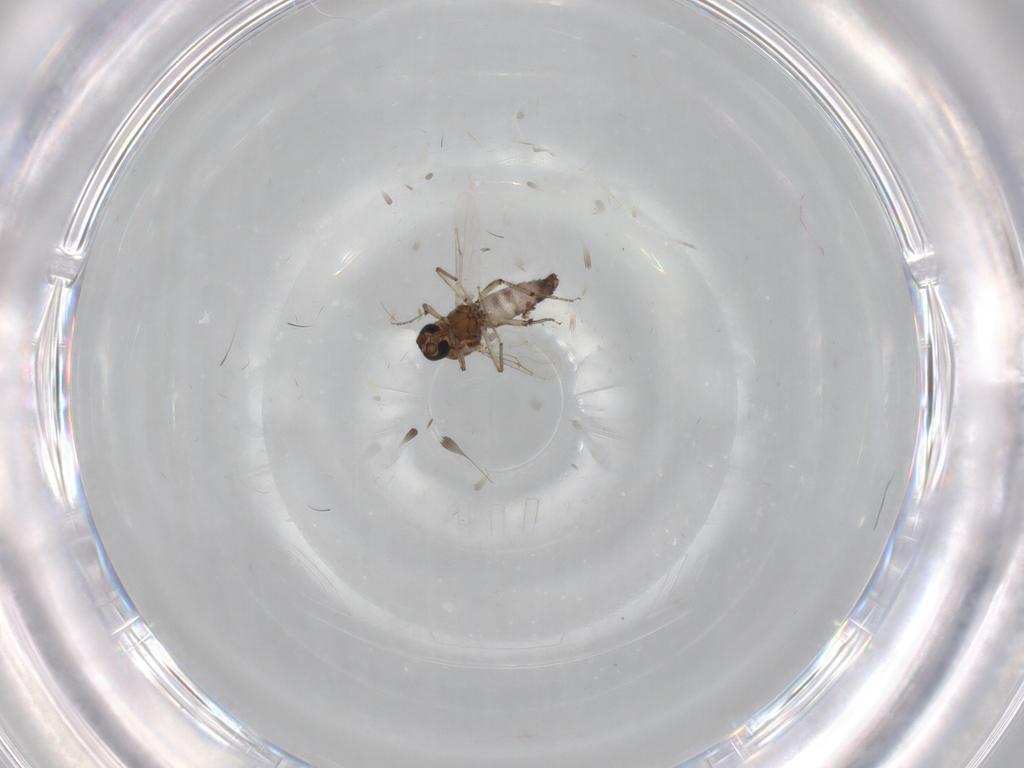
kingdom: Animalia
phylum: Arthropoda
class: Insecta
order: Diptera
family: Ceratopogonidae
